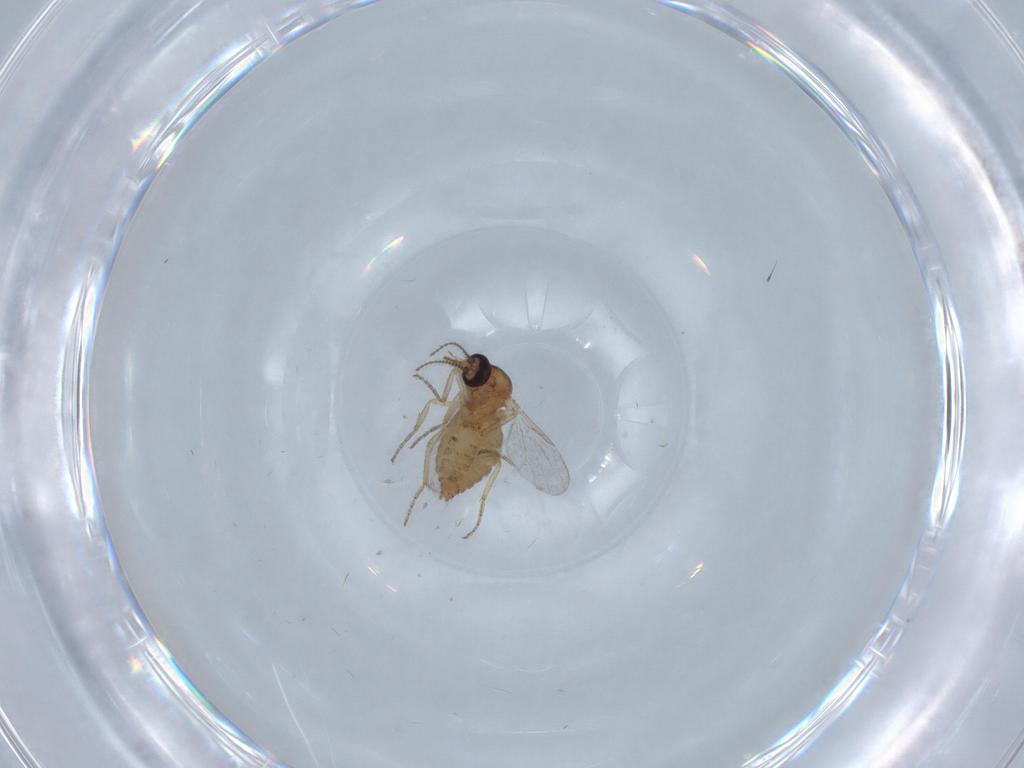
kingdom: Animalia
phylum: Arthropoda
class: Insecta
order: Diptera
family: Ceratopogonidae
